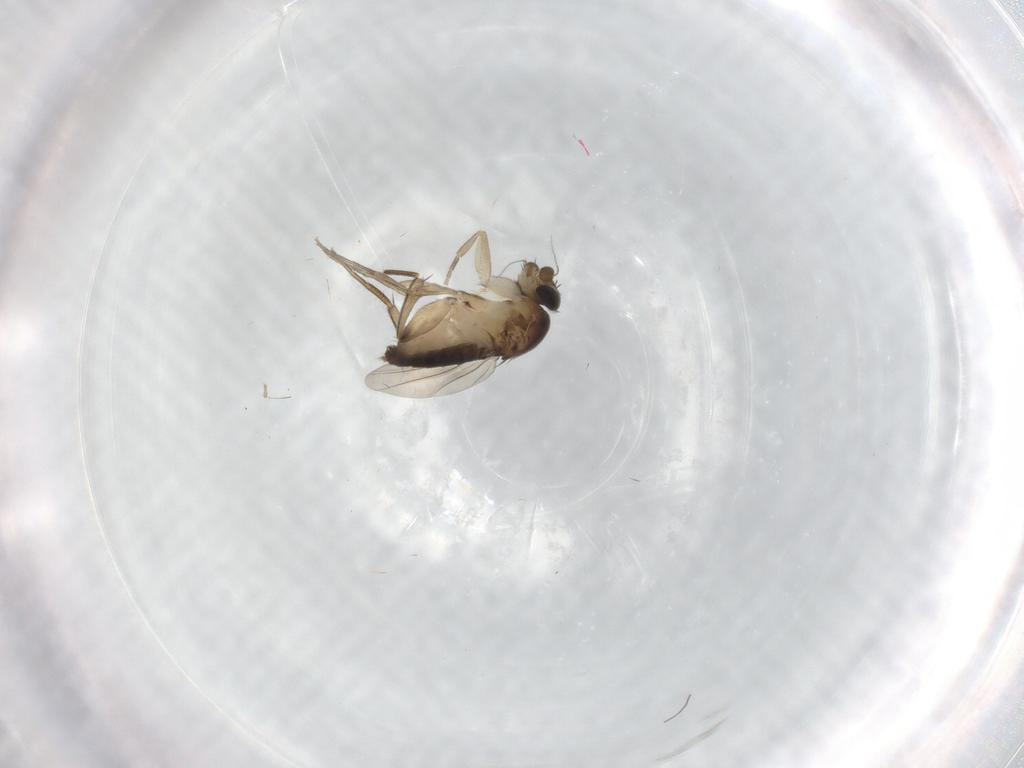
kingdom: Animalia
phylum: Arthropoda
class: Insecta
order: Diptera
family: Phoridae
